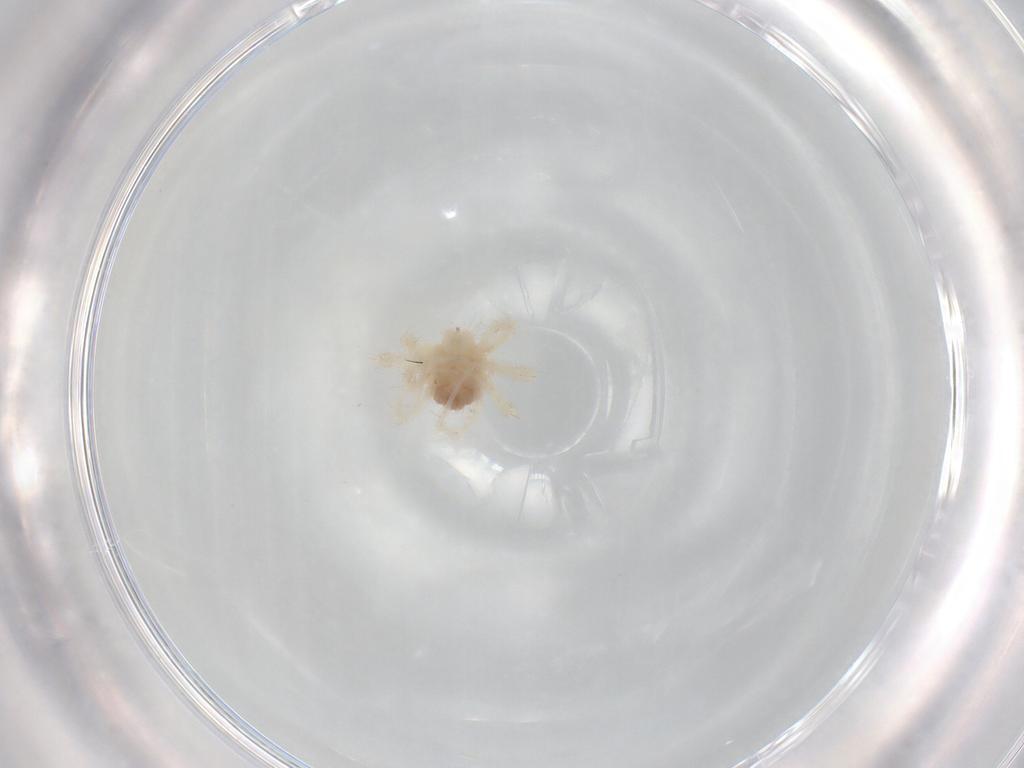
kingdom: Animalia
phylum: Arthropoda
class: Arachnida
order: Trombidiformes
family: Anystidae
